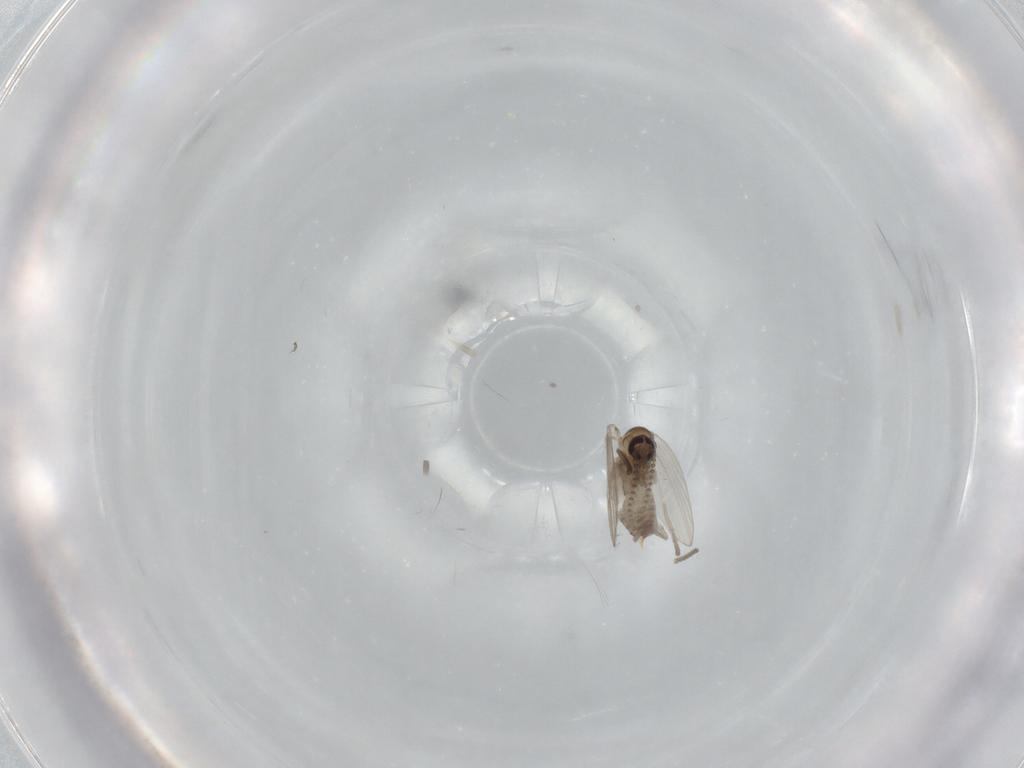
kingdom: Animalia
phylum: Arthropoda
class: Insecta
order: Diptera
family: Psychodidae
